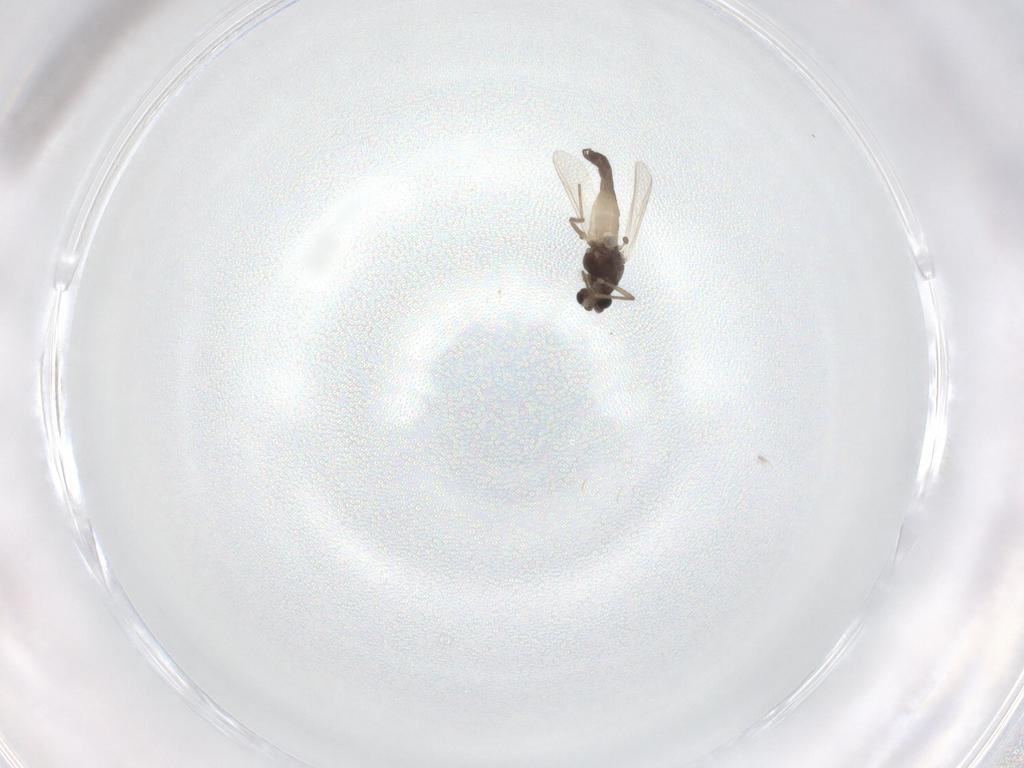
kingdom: Animalia
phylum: Arthropoda
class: Insecta
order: Diptera
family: Chironomidae
